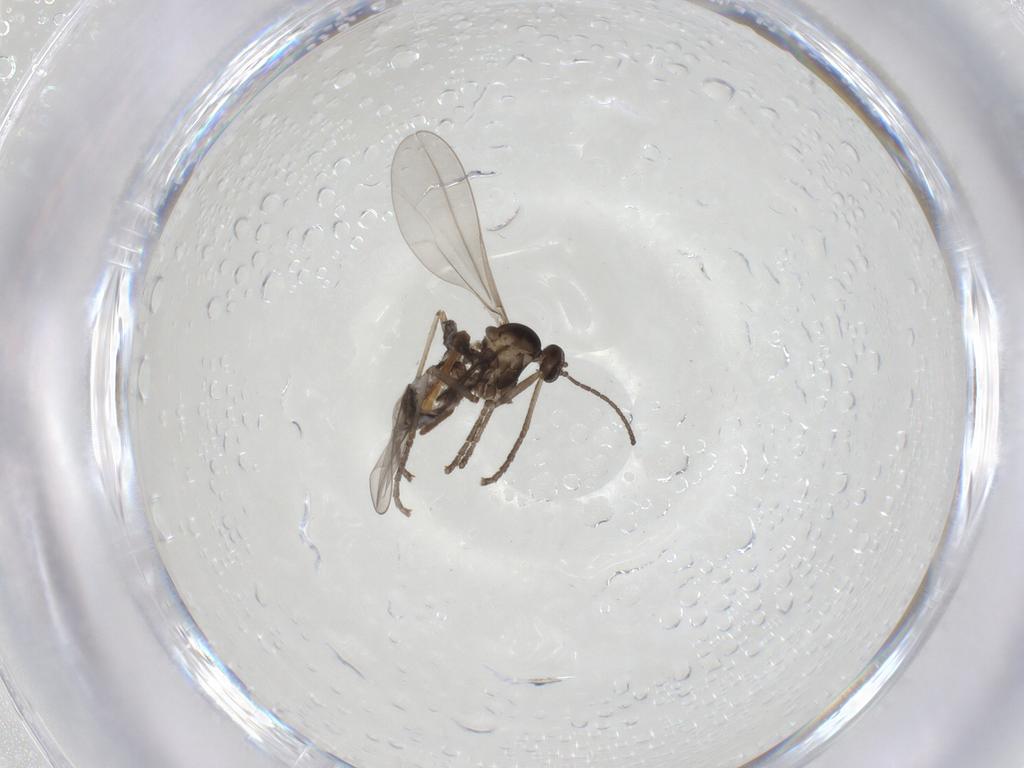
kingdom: Animalia
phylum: Arthropoda
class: Insecta
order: Diptera
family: Cecidomyiidae
